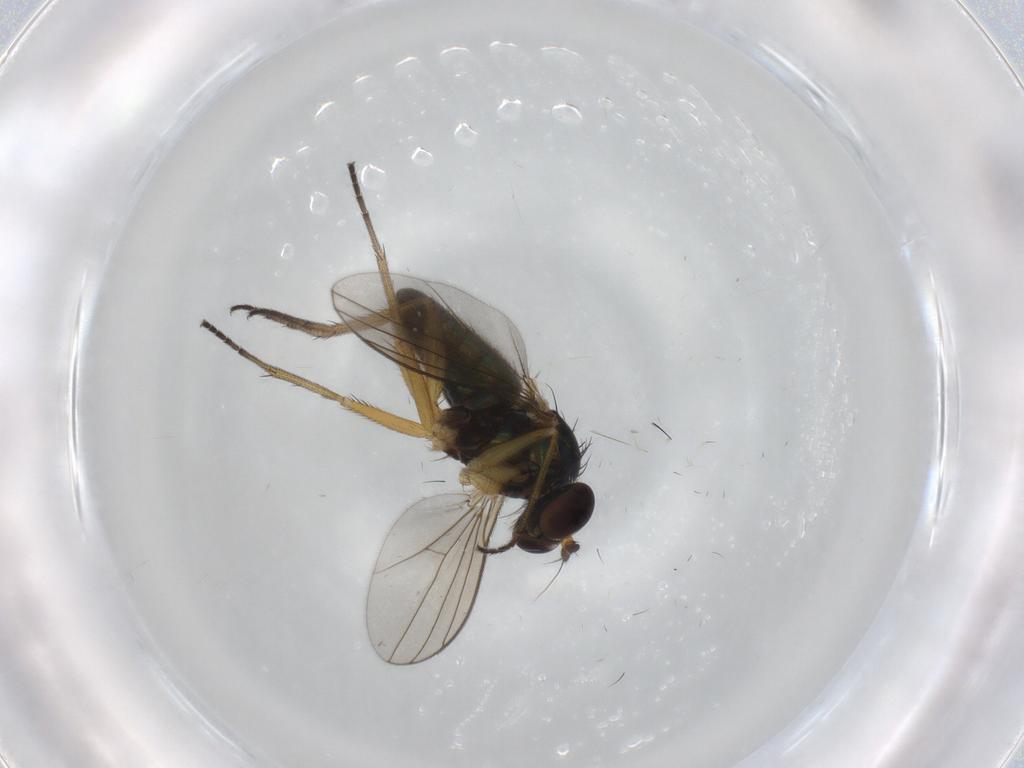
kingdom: Animalia
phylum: Arthropoda
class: Insecta
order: Diptera
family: Dolichopodidae
